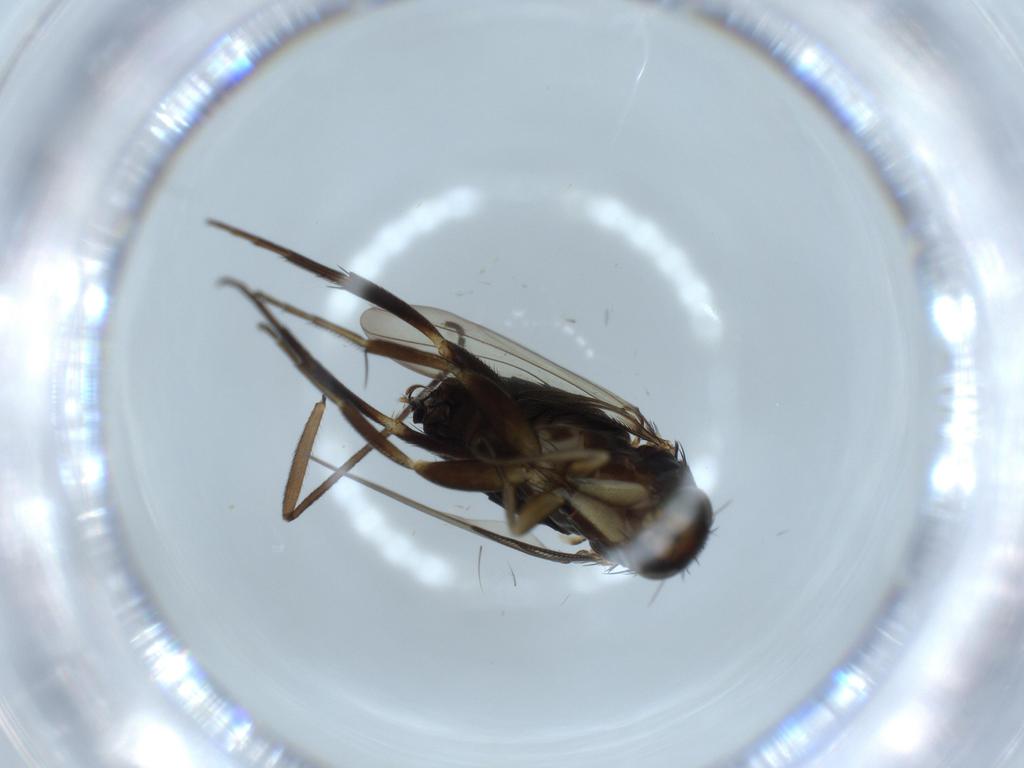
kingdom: Animalia
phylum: Arthropoda
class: Insecta
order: Diptera
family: Phoridae
